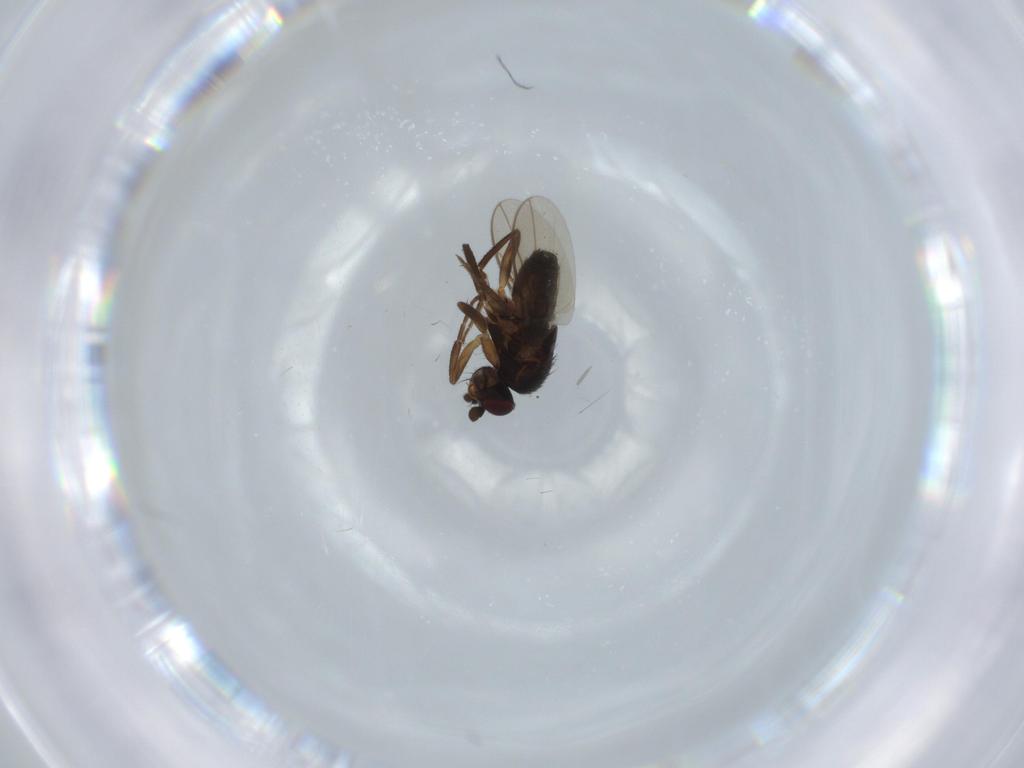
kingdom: Animalia
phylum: Arthropoda
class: Insecta
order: Diptera
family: Sphaeroceridae
